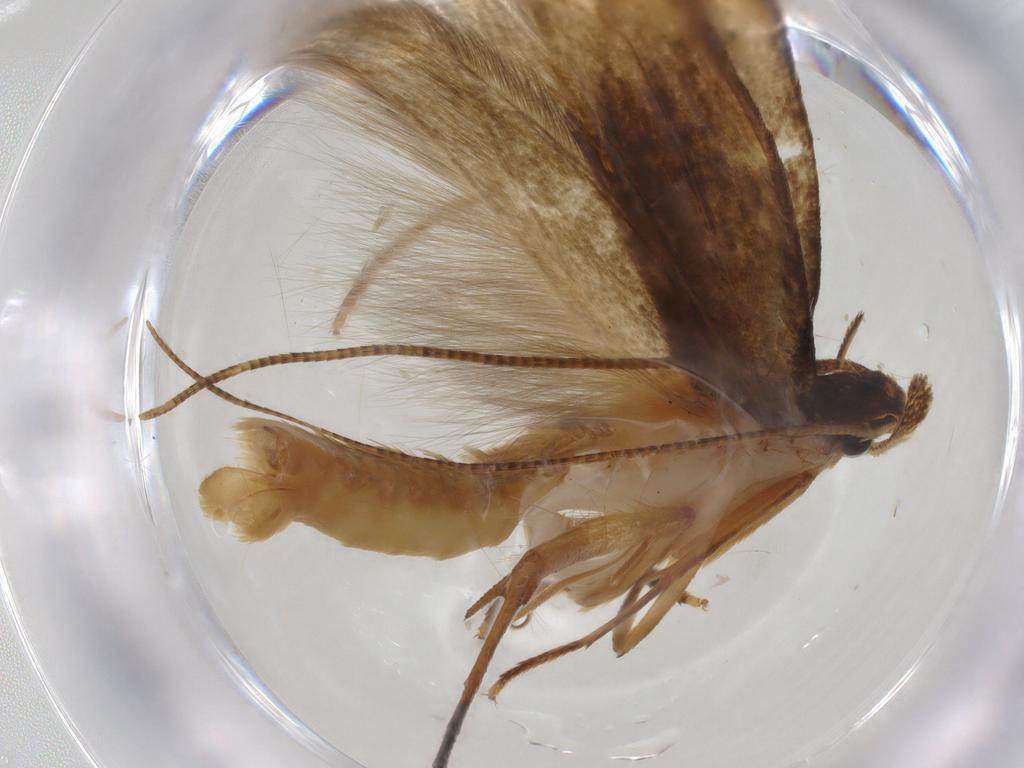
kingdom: Animalia
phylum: Arthropoda
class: Insecta
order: Lepidoptera
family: Tineidae
